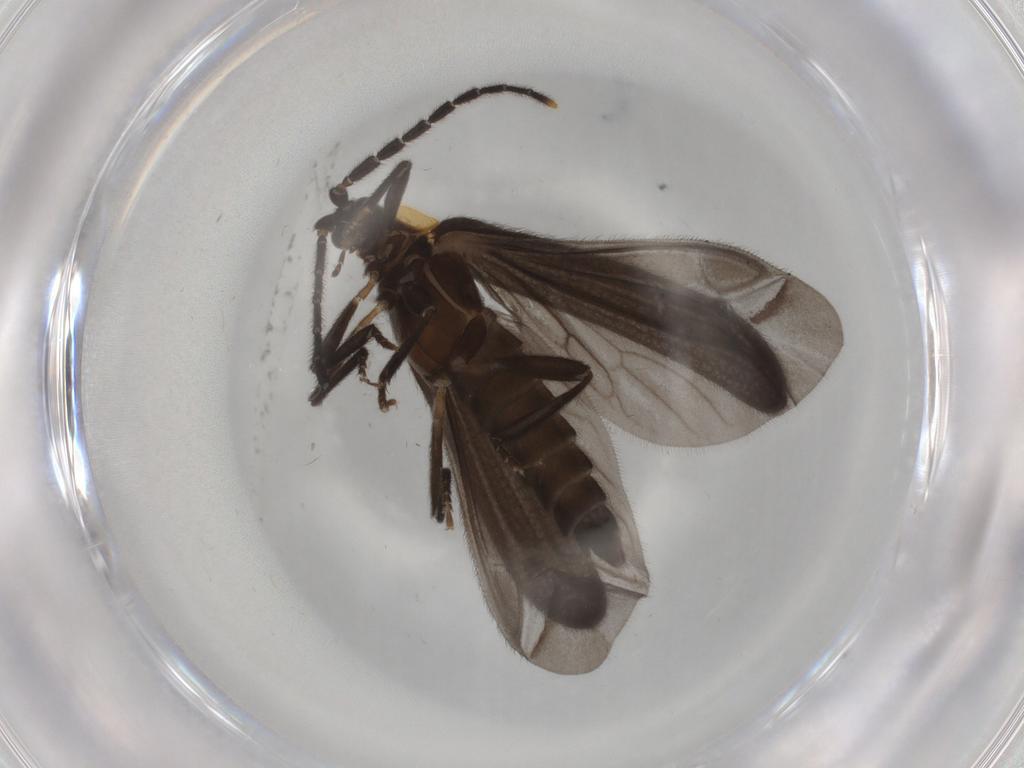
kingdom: Animalia
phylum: Arthropoda
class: Insecta
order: Coleoptera
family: Lycidae
